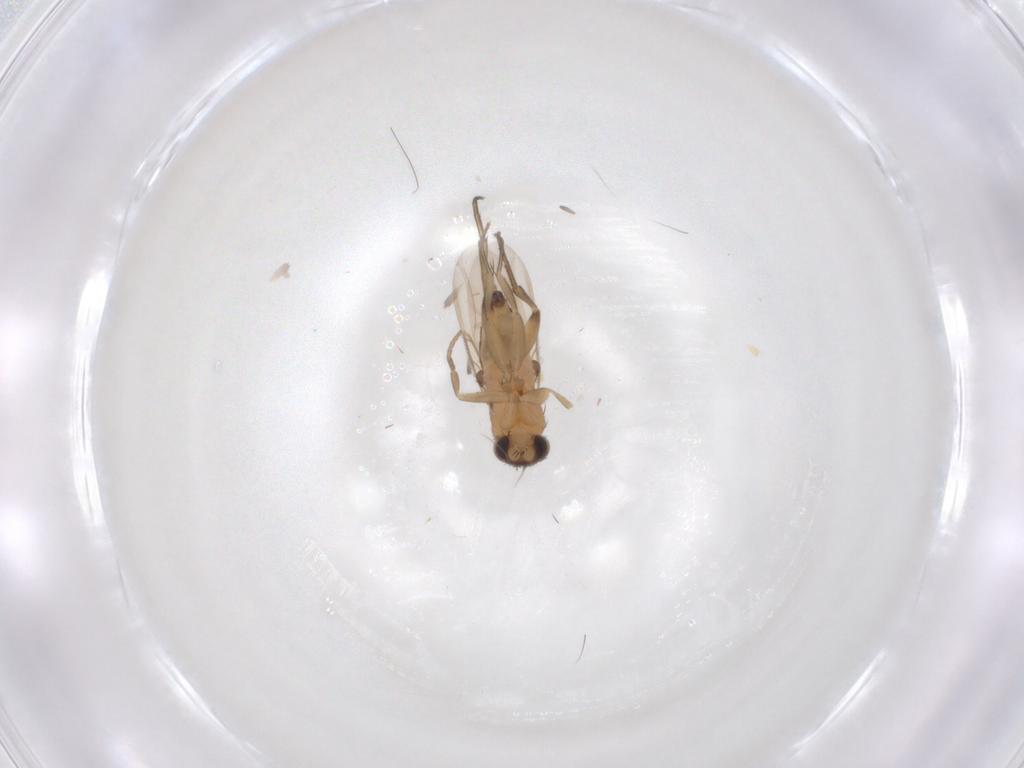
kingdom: Animalia
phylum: Arthropoda
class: Insecta
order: Diptera
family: Phoridae
